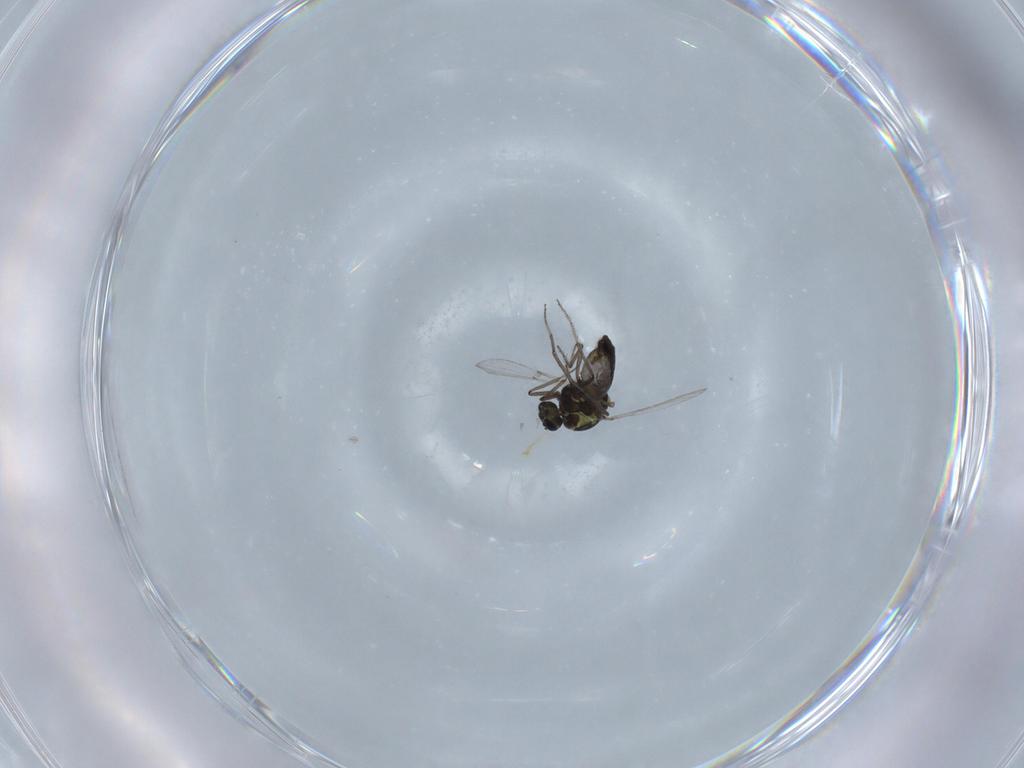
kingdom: Animalia
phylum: Arthropoda
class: Insecta
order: Diptera
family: Ceratopogonidae
